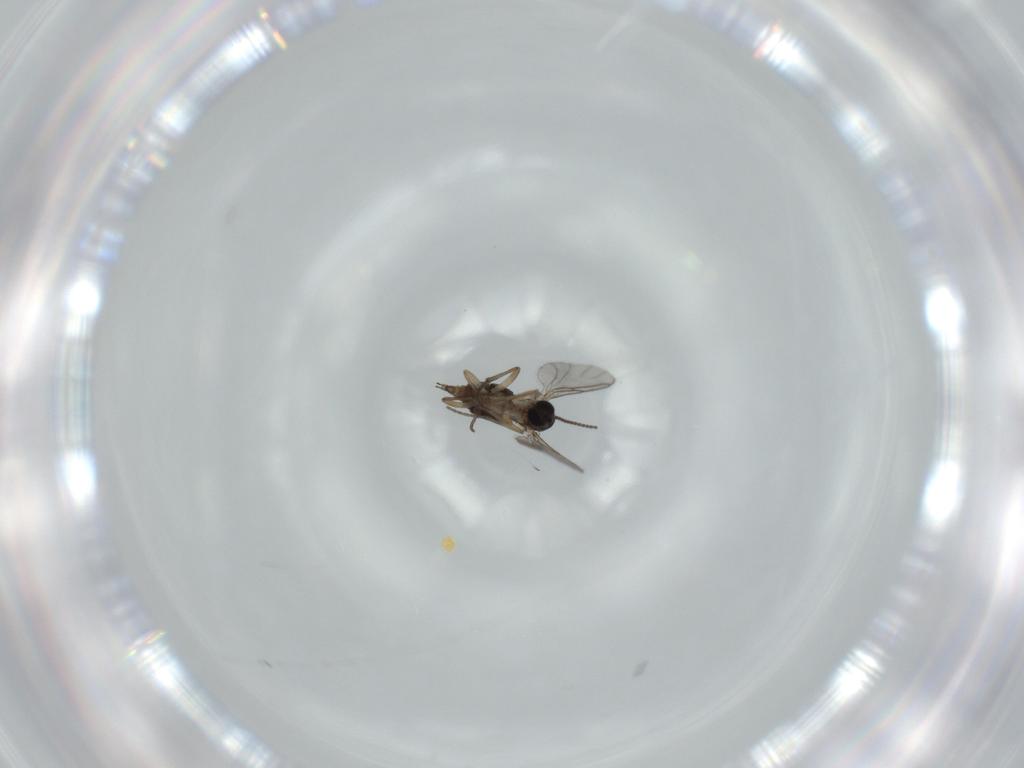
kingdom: Animalia
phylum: Arthropoda
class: Insecta
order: Diptera
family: Sciaridae
